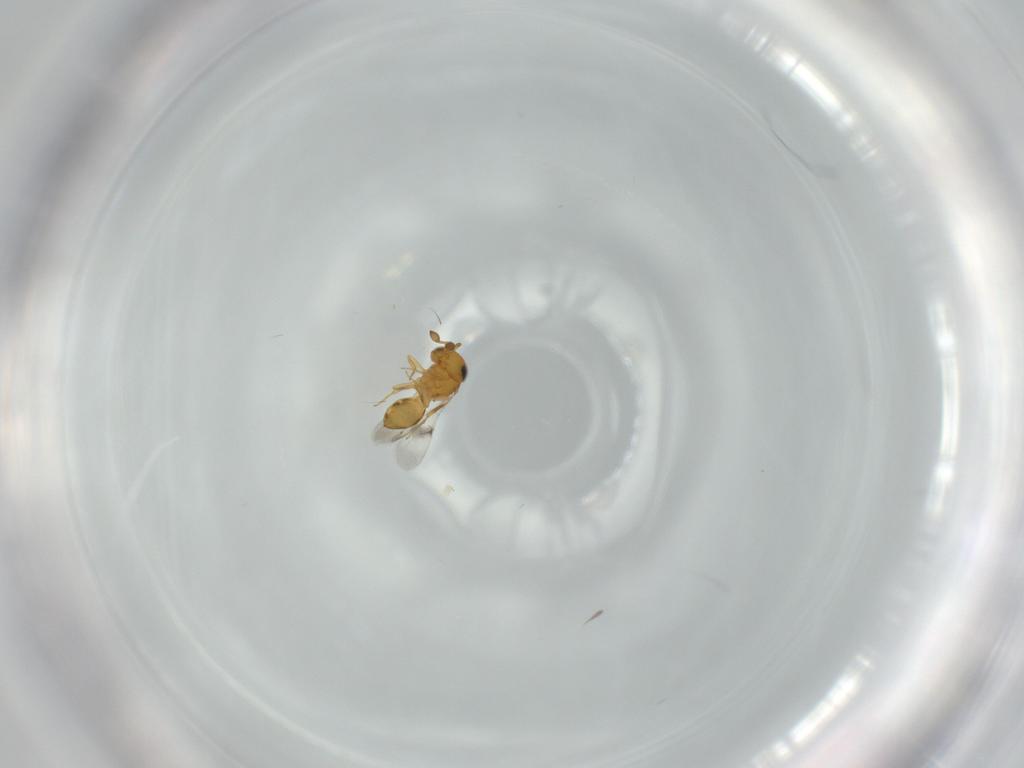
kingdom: Animalia
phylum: Arthropoda
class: Insecta
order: Hymenoptera
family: Scelionidae
